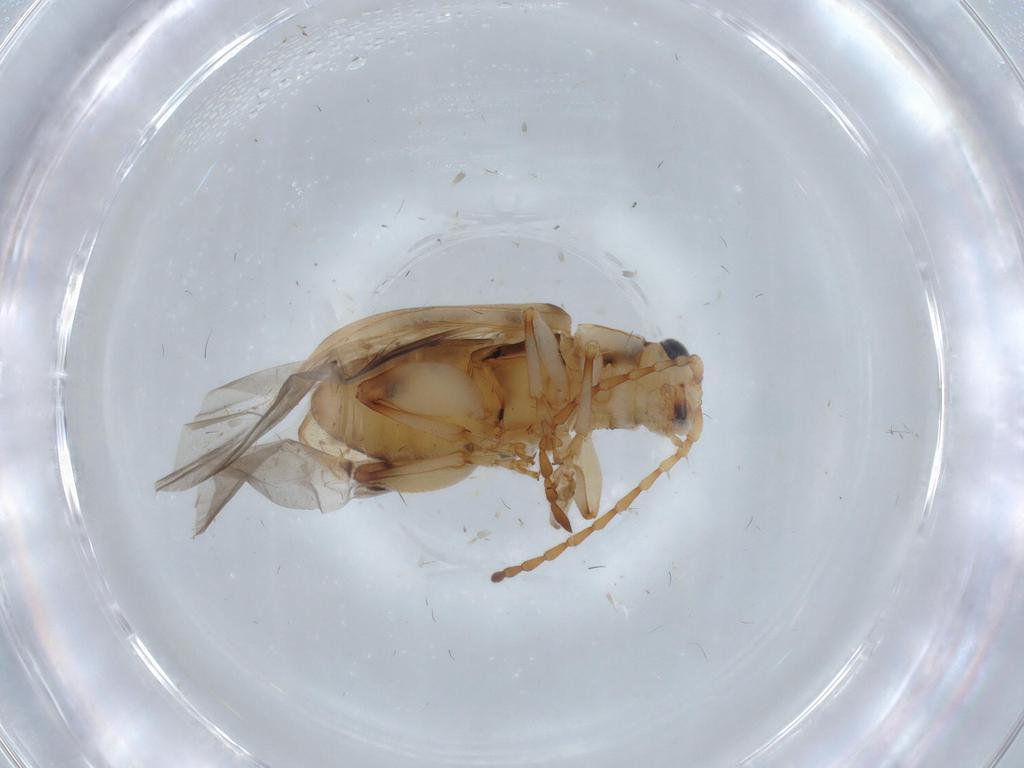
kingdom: Animalia
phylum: Arthropoda
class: Insecta
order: Coleoptera
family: Chrysomelidae
